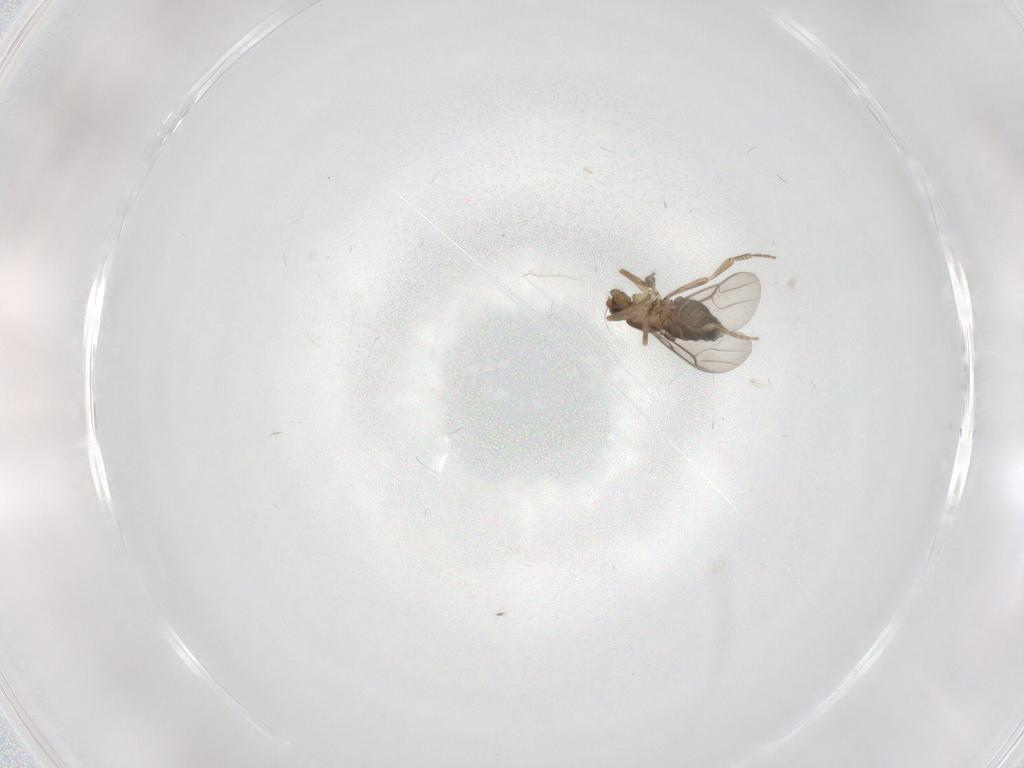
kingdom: Animalia
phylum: Arthropoda
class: Insecta
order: Diptera
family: Phoridae
